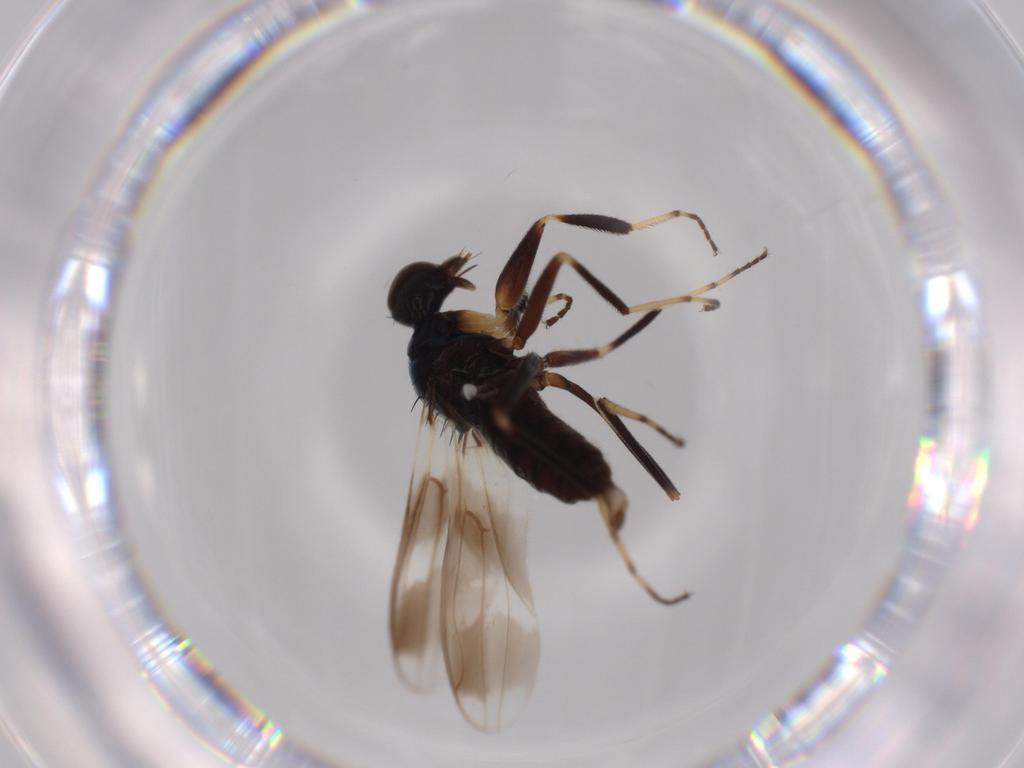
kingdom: Animalia
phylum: Arthropoda
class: Insecta
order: Diptera
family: Hybotidae
